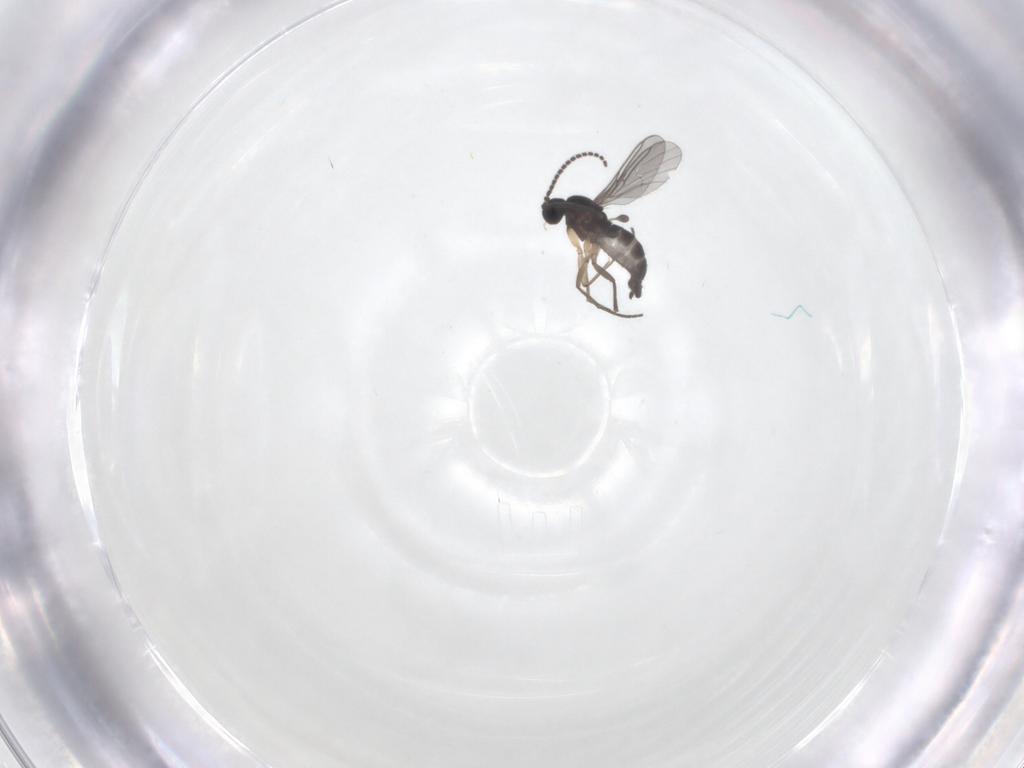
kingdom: Animalia
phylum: Arthropoda
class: Insecta
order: Diptera
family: Sciaridae
